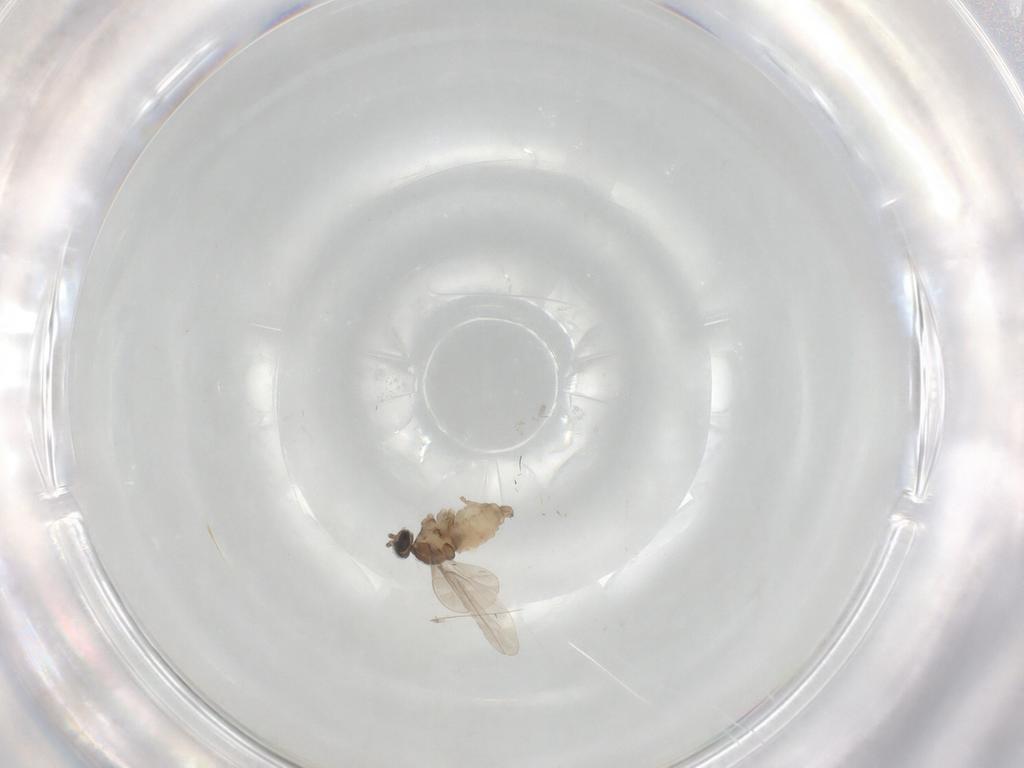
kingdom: Animalia
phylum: Arthropoda
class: Insecta
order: Diptera
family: Cecidomyiidae
